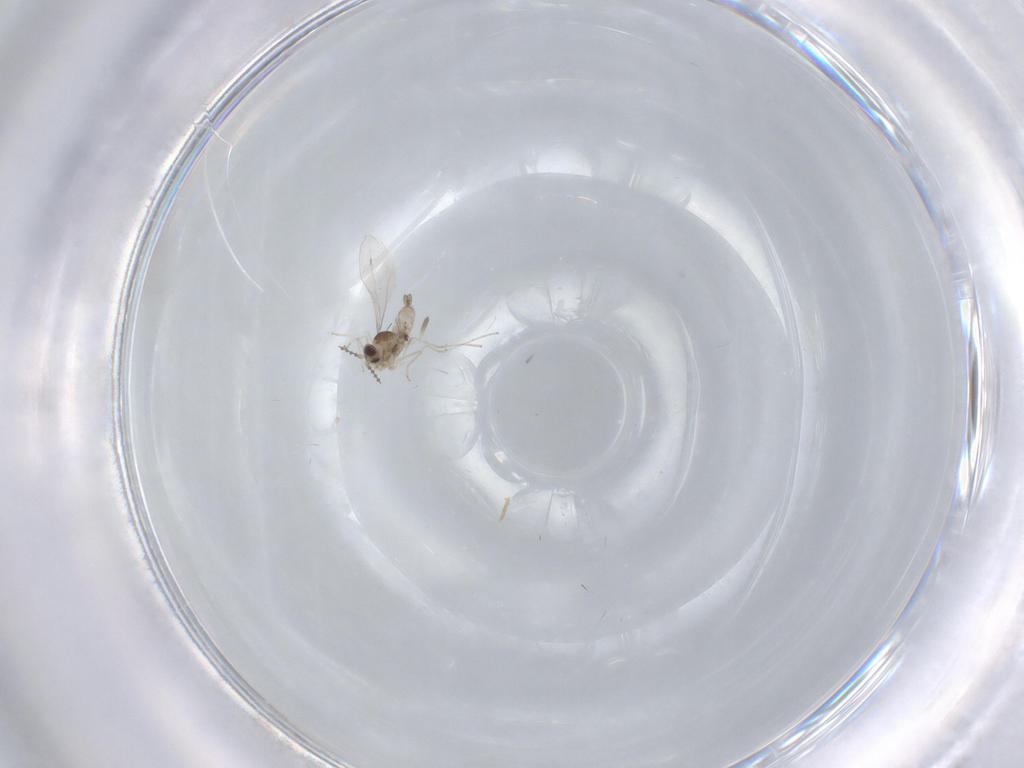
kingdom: Animalia
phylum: Arthropoda
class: Insecta
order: Diptera
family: Cecidomyiidae
